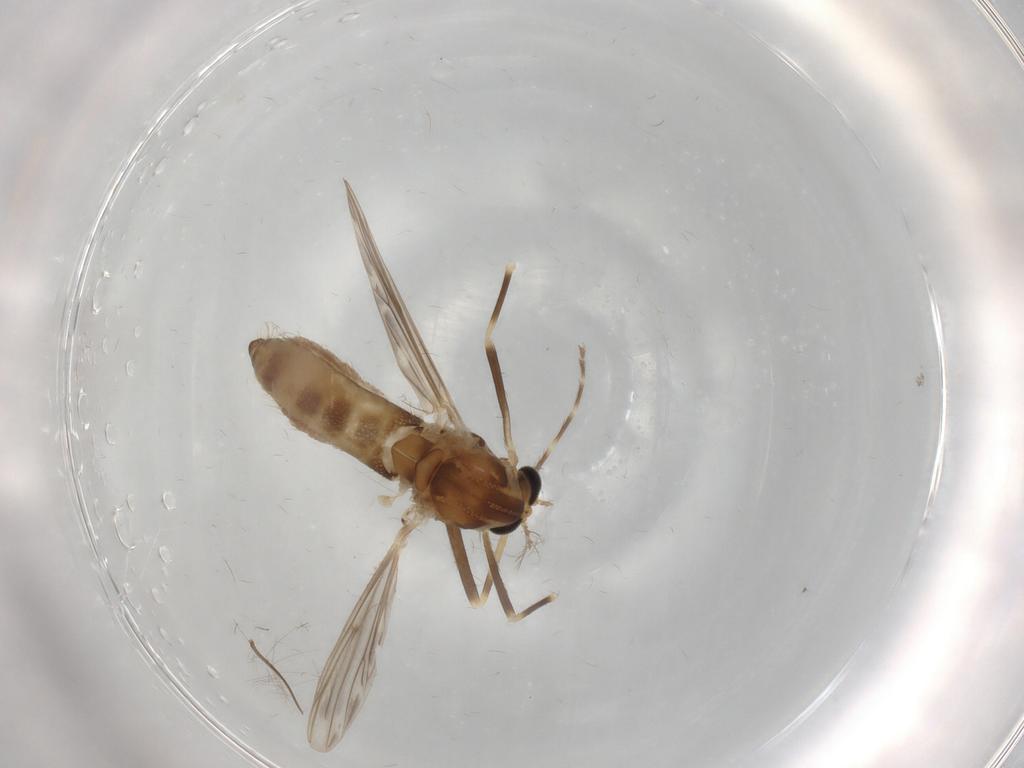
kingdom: Animalia
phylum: Arthropoda
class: Insecta
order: Diptera
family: Chironomidae
